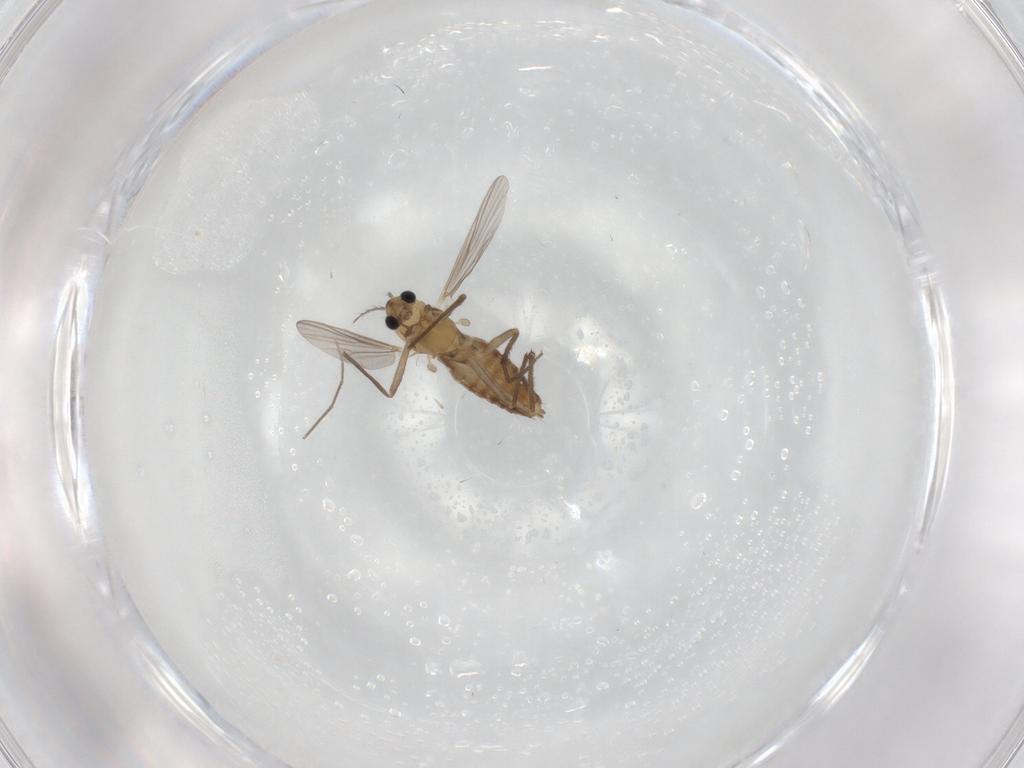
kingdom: Animalia
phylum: Arthropoda
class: Insecta
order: Diptera
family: Chironomidae
